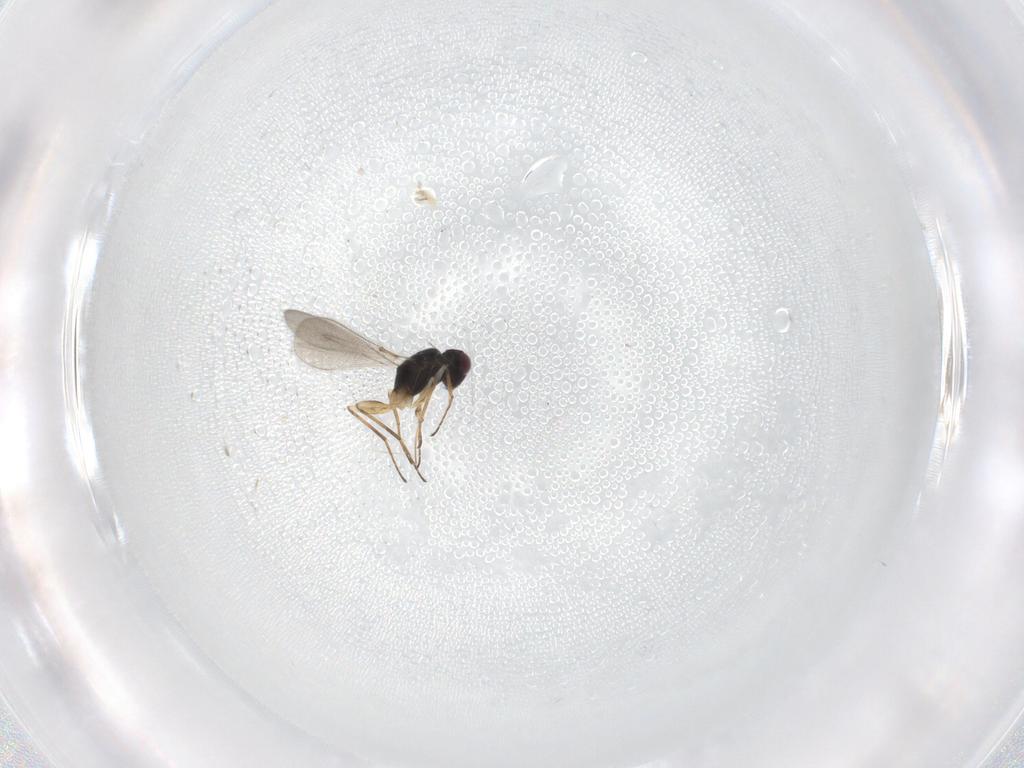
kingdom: Animalia
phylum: Arthropoda
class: Insecta
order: Hymenoptera
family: Mymaridae
